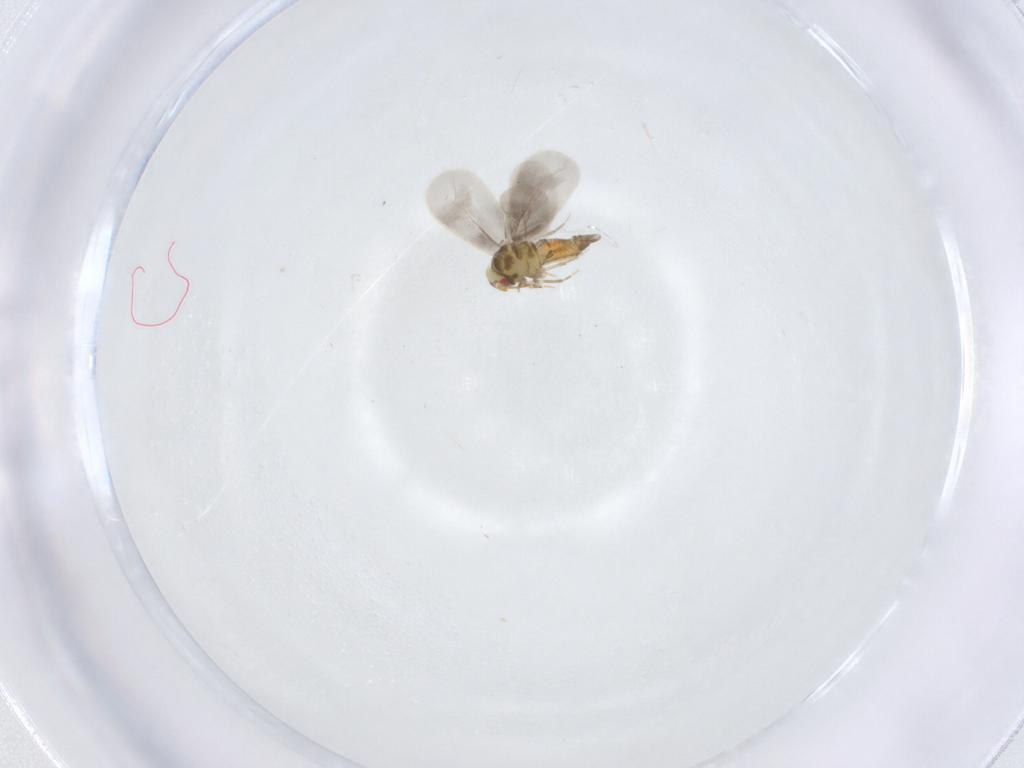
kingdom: Animalia
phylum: Arthropoda
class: Insecta
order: Hemiptera
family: Aleyrodidae
